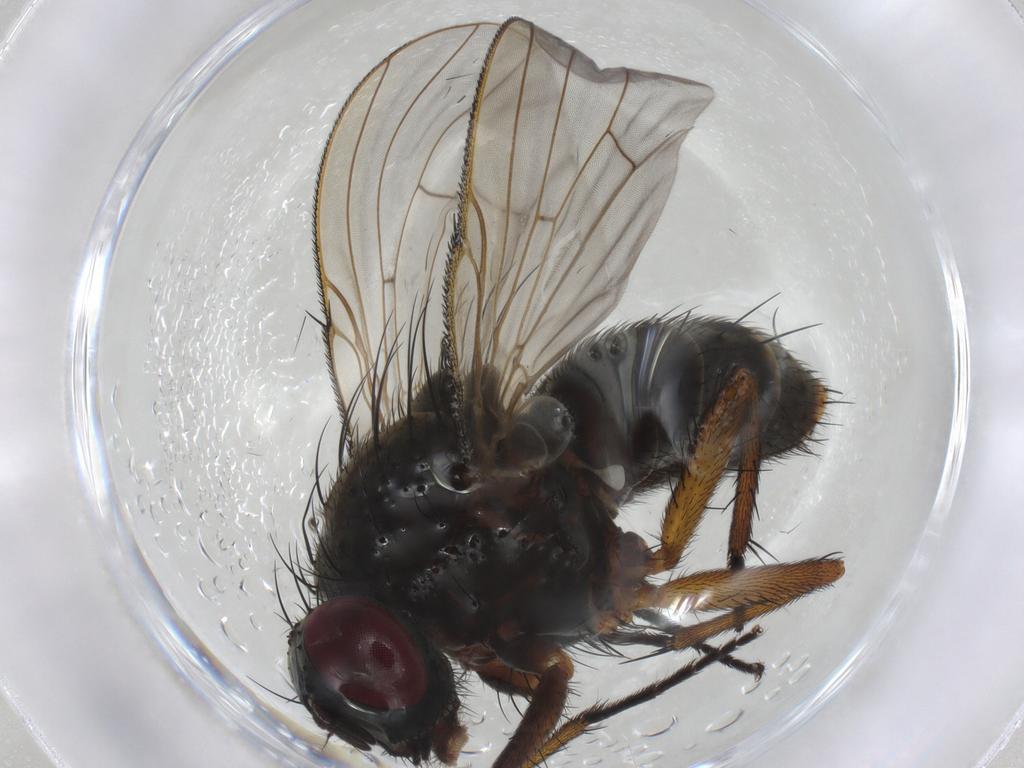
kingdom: Animalia
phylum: Arthropoda
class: Insecta
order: Diptera
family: Muscidae
